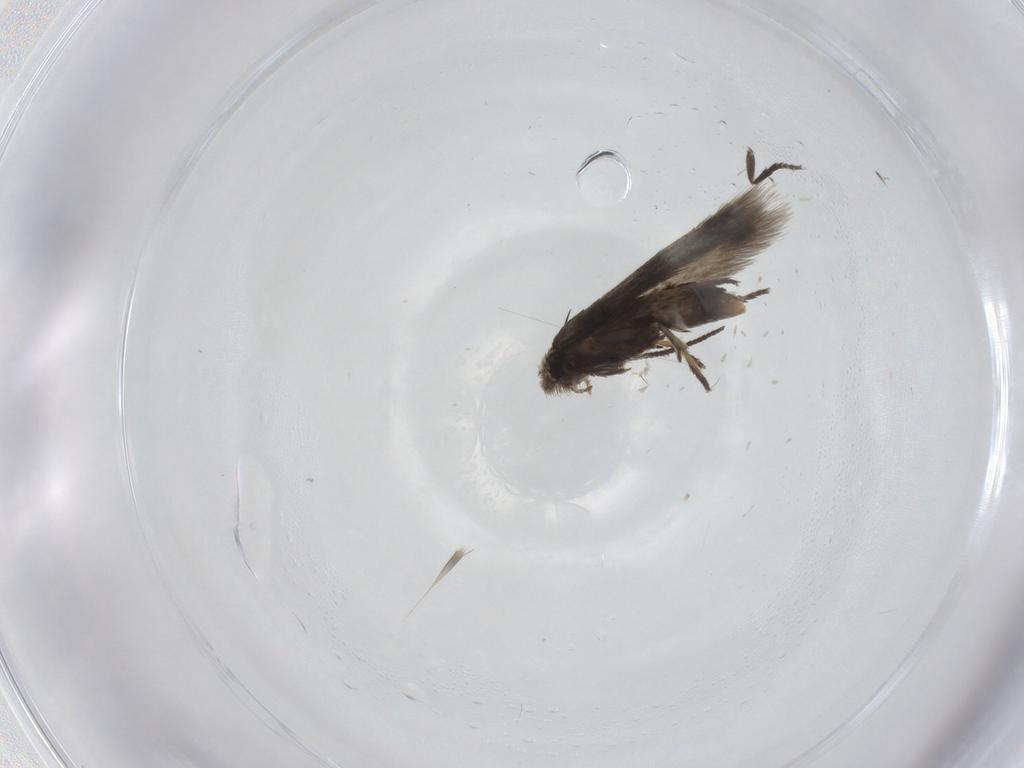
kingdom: Animalia
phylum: Arthropoda
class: Insecta
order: Lepidoptera
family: Nepticulidae
